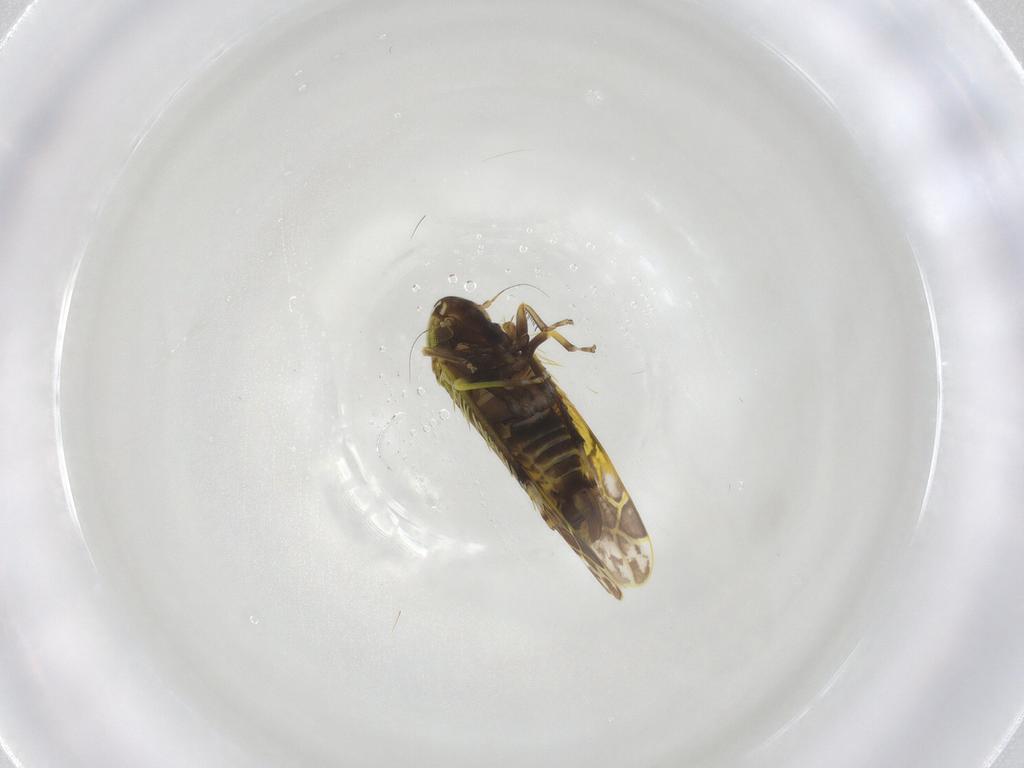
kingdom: Animalia
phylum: Arthropoda
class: Insecta
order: Hemiptera
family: Cicadellidae
